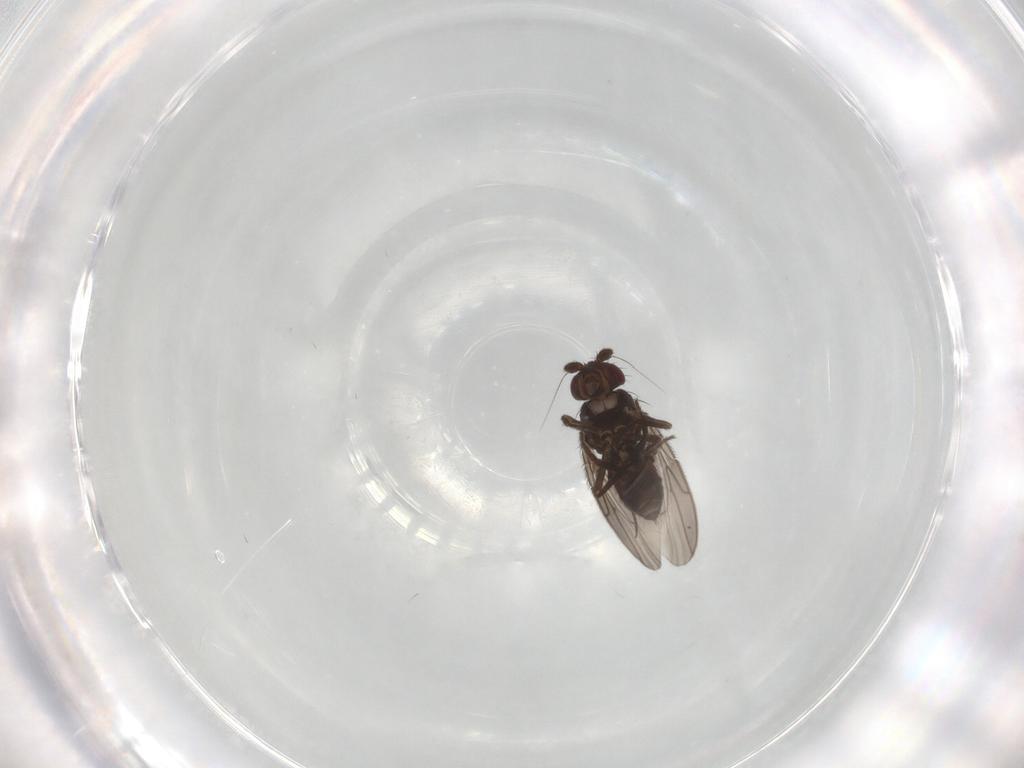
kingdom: Animalia
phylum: Arthropoda
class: Insecta
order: Diptera
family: Sphaeroceridae
